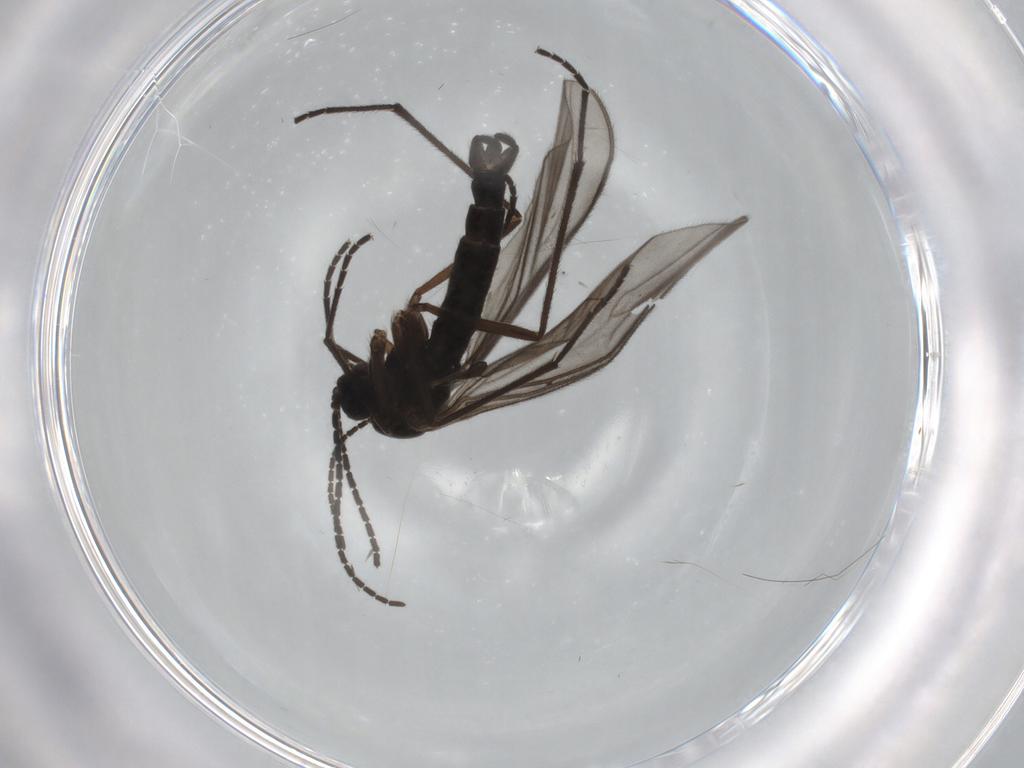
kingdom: Animalia
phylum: Arthropoda
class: Insecta
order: Diptera
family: Sciaridae
